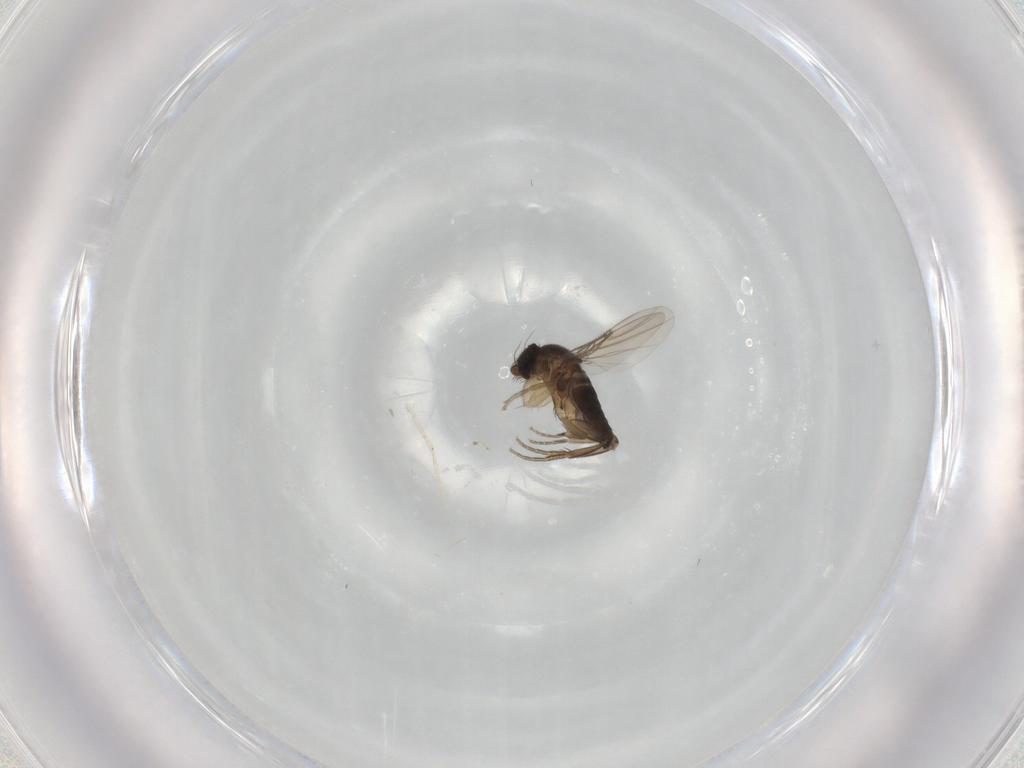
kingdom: Animalia
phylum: Arthropoda
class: Insecta
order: Diptera
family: Phoridae
